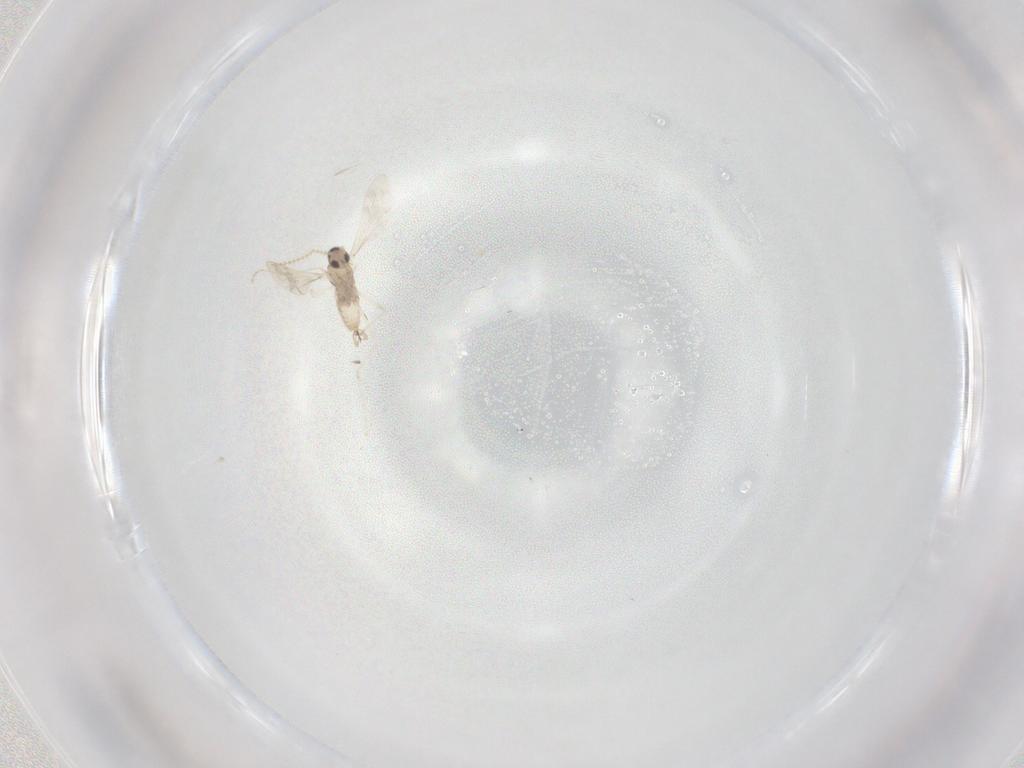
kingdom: Animalia
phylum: Arthropoda
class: Insecta
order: Diptera
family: Cecidomyiidae
